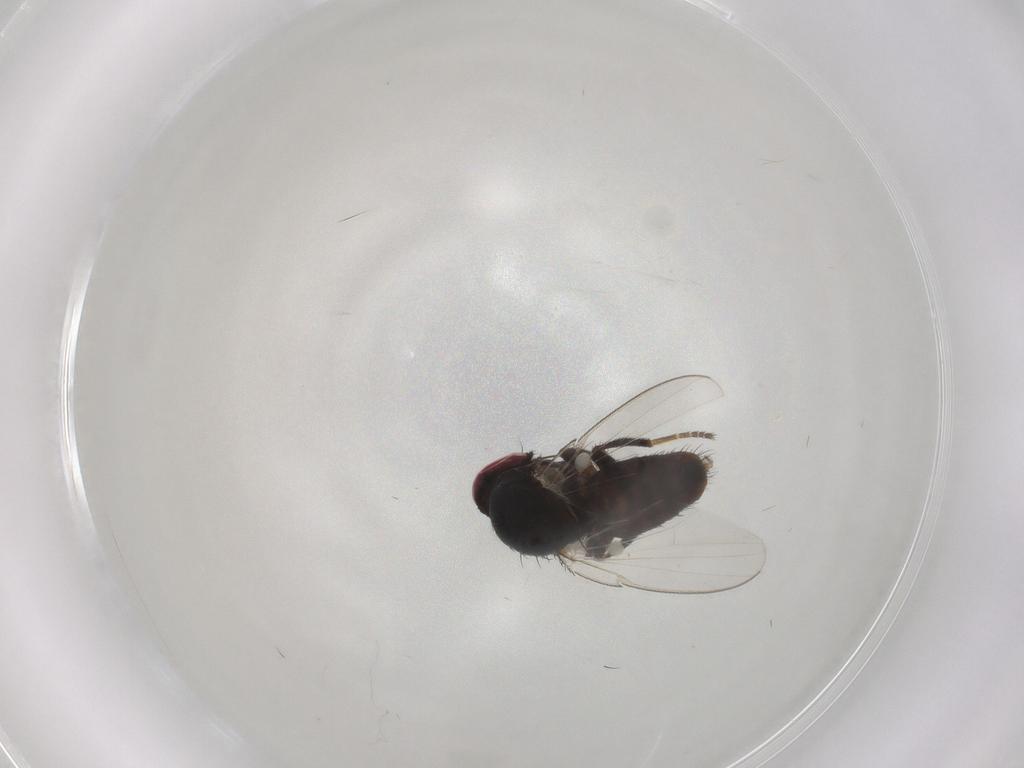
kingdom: Animalia
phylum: Arthropoda
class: Insecta
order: Diptera
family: Milichiidae
